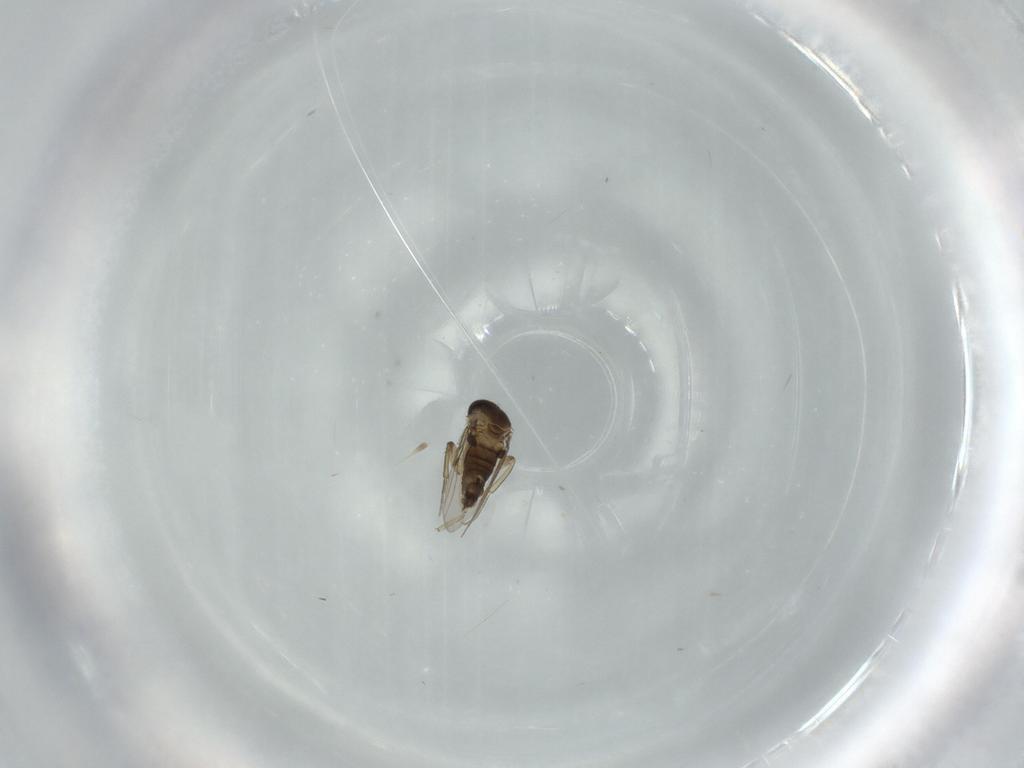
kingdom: Animalia
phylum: Arthropoda
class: Insecta
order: Diptera
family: Phoridae
